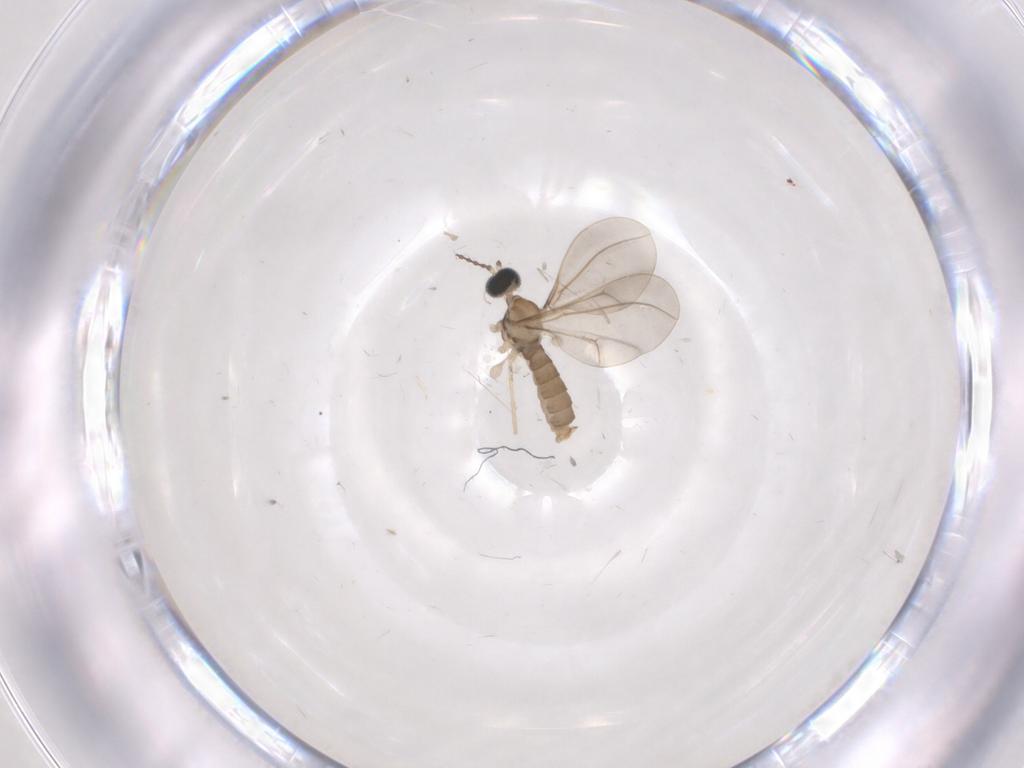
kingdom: Animalia
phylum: Arthropoda
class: Insecta
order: Diptera
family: Cecidomyiidae
